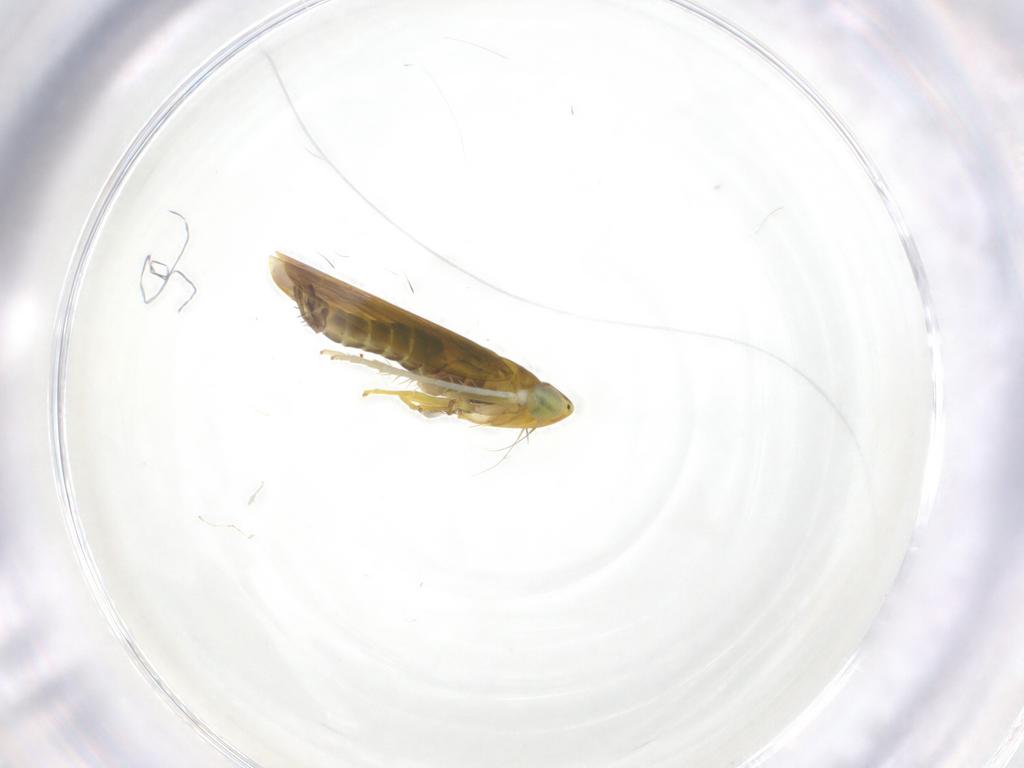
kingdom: Animalia
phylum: Arthropoda
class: Insecta
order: Hemiptera
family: Cicadellidae
